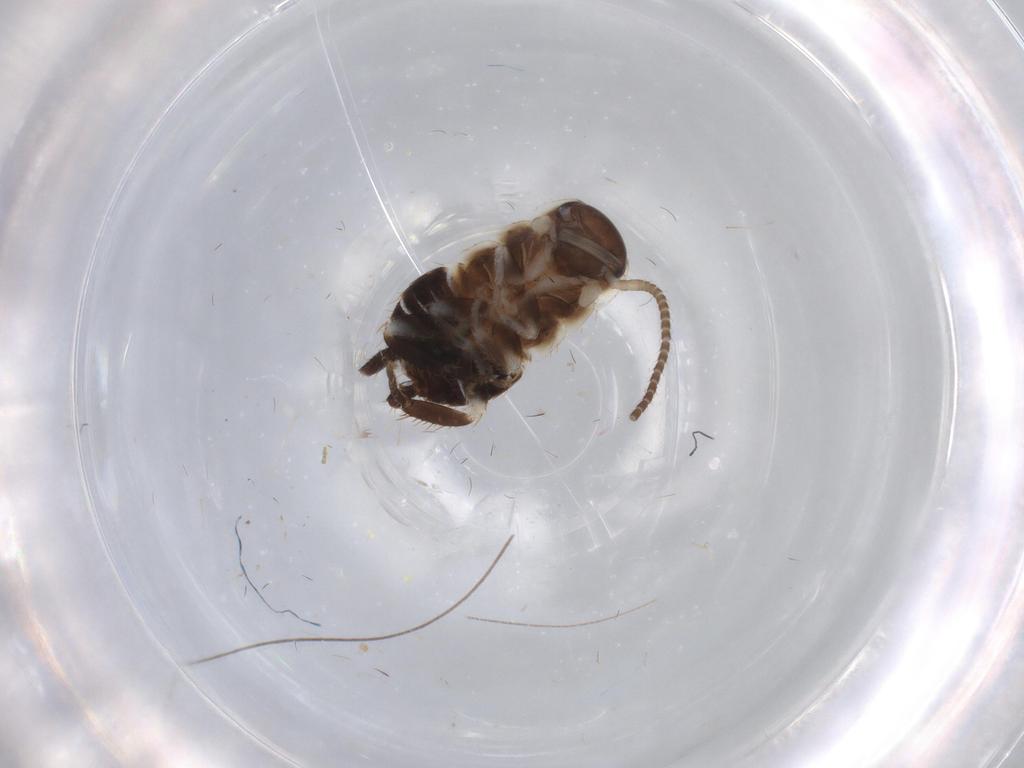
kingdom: Animalia
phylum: Arthropoda
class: Insecta
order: Blattodea
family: Ectobiidae
